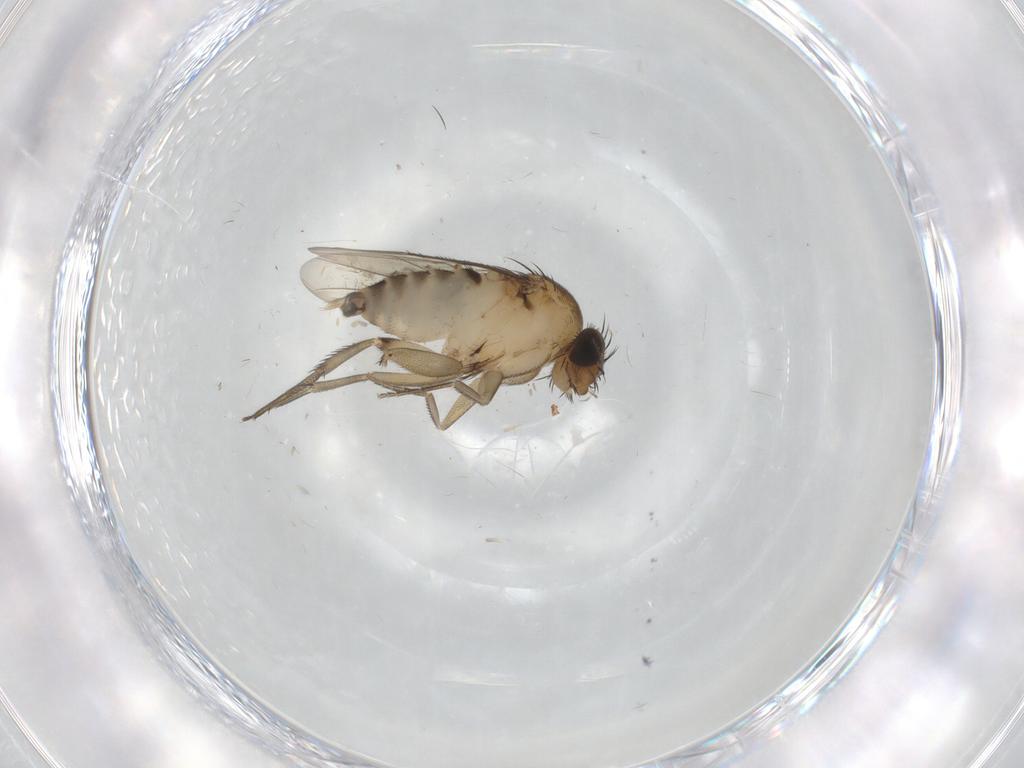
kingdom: Animalia
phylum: Arthropoda
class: Insecta
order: Diptera
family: Phoridae
